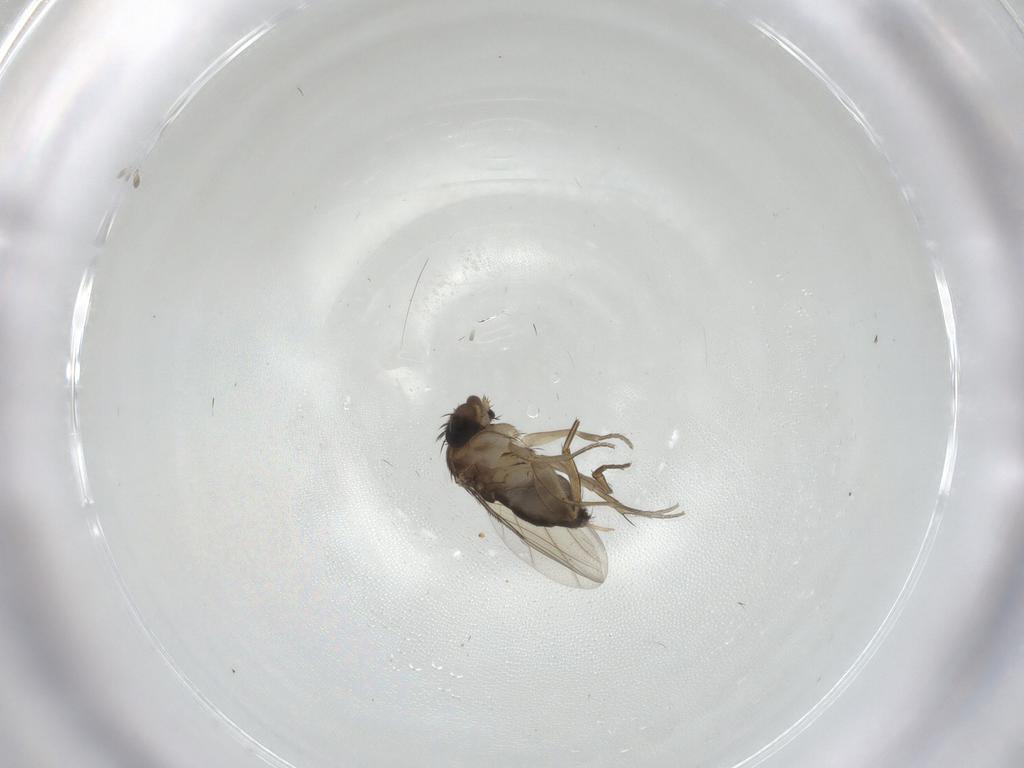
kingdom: Animalia
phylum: Arthropoda
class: Insecta
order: Diptera
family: Phoridae
